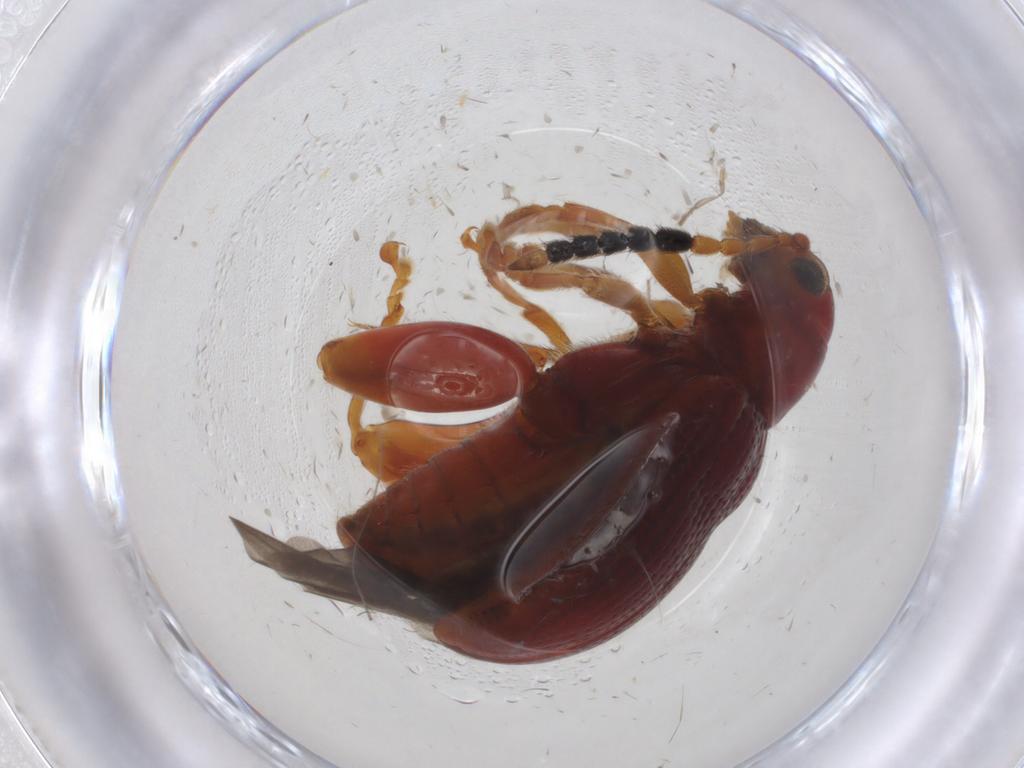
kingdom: Animalia
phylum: Arthropoda
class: Insecta
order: Coleoptera
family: Chrysomelidae
